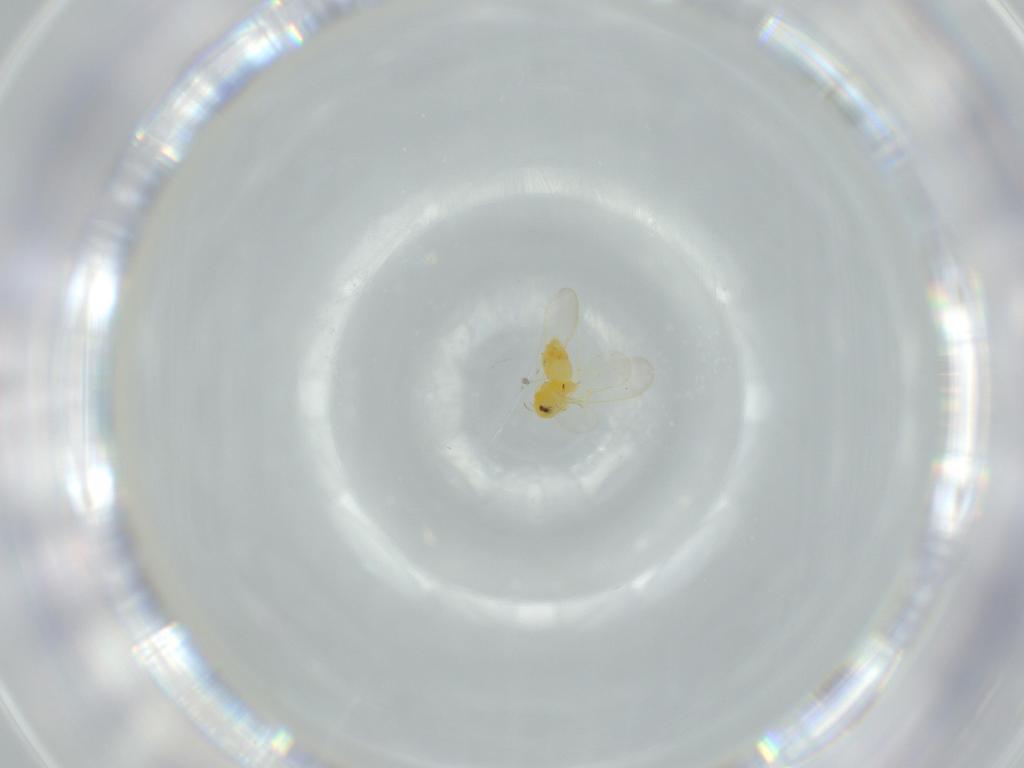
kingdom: Animalia
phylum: Arthropoda
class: Insecta
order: Hemiptera
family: Aleyrodidae
